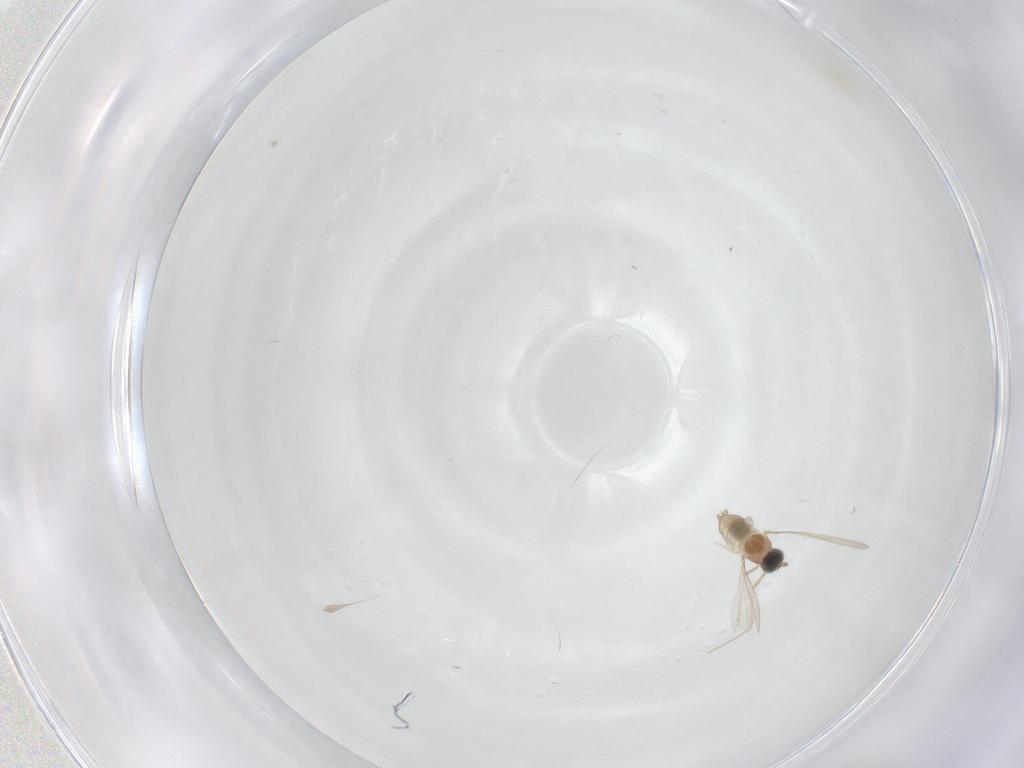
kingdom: Animalia
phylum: Arthropoda
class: Insecta
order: Diptera
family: Cecidomyiidae
